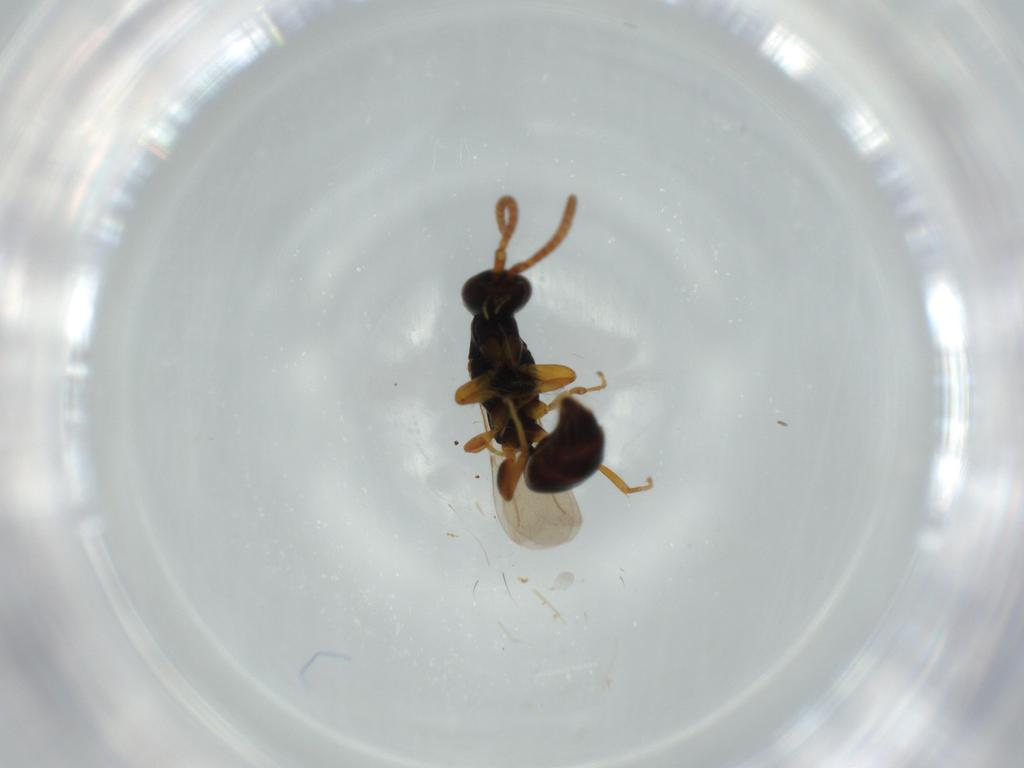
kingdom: Animalia
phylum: Arthropoda
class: Insecta
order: Hymenoptera
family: Bethylidae
